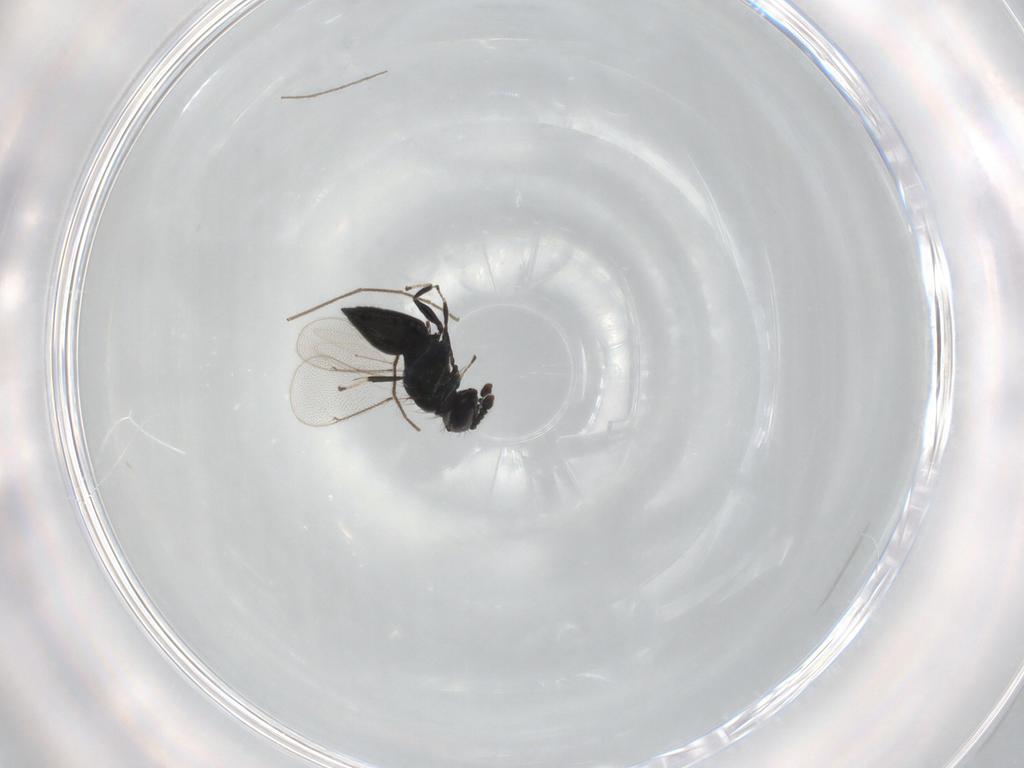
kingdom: Animalia
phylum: Arthropoda
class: Insecta
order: Hymenoptera
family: Eulophidae
